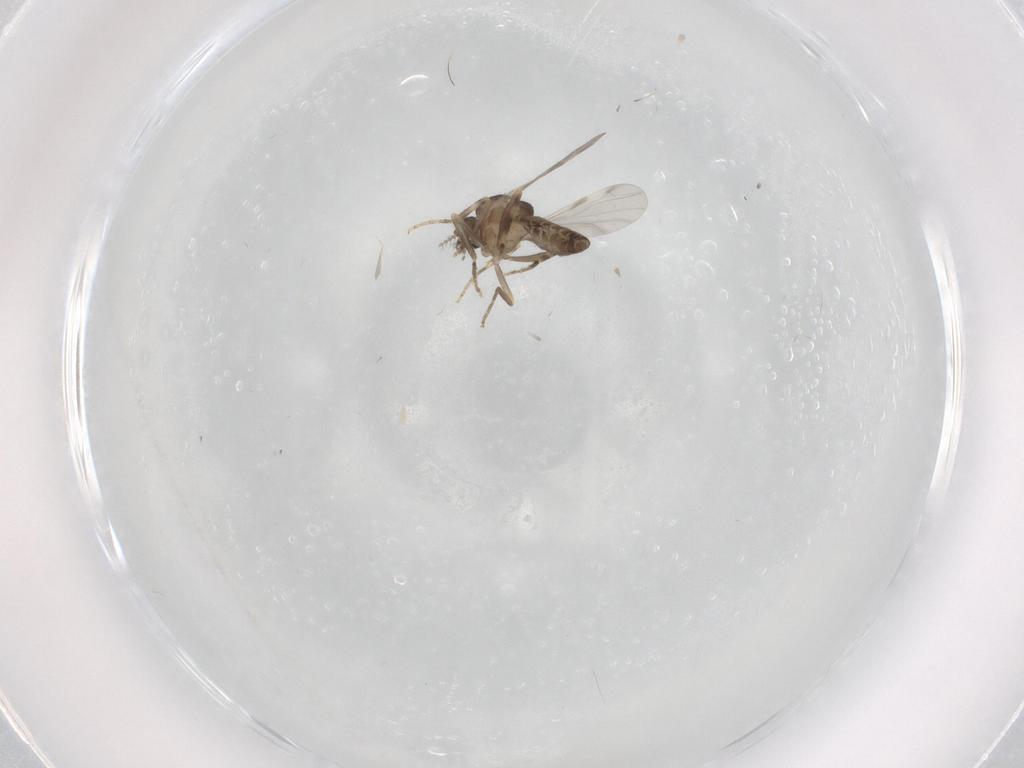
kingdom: Animalia
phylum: Arthropoda
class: Insecta
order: Diptera
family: Ceratopogonidae
